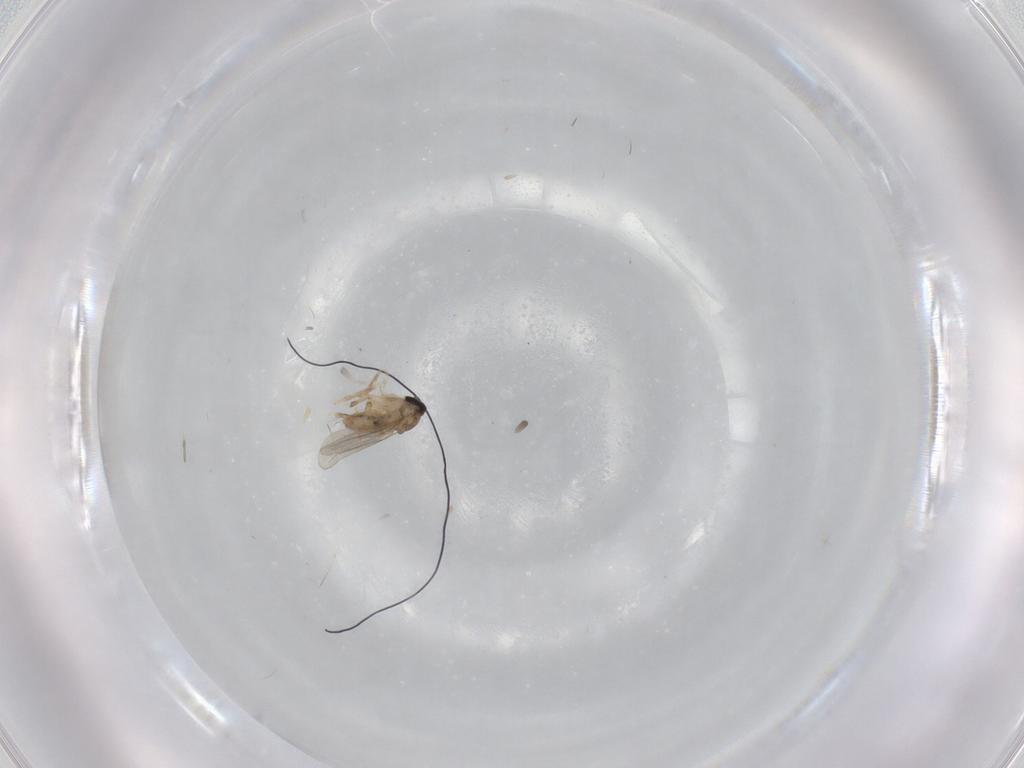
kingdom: Animalia
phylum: Arthropoda
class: Insecta
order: Diptera
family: Cecidomyiidae
